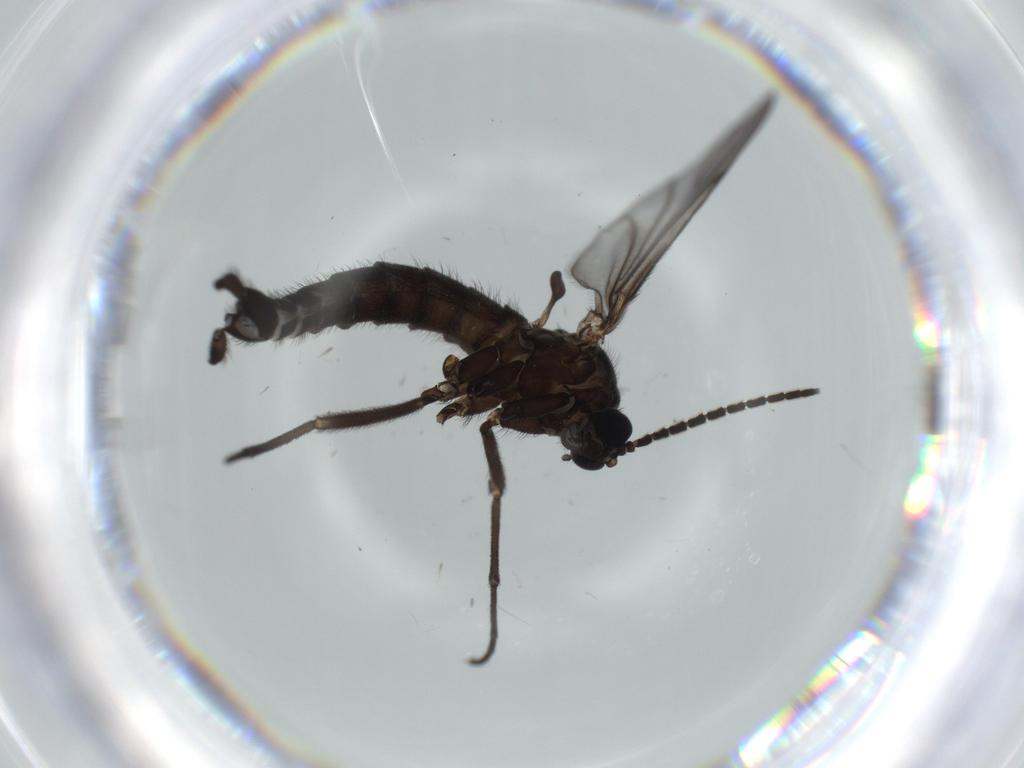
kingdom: Animalia
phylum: Arthropoda
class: Insecta
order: Diptera
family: Sciaridae
